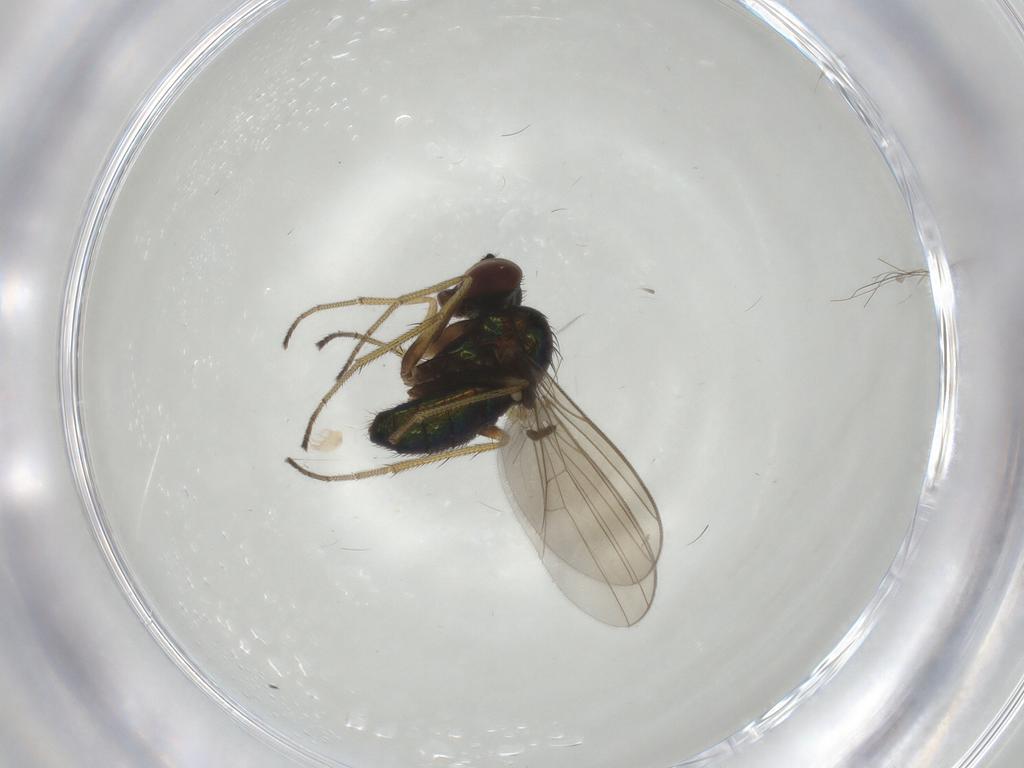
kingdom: Animalia
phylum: Arthropoda
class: Insecta
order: Diptera
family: Dolichopodidae
